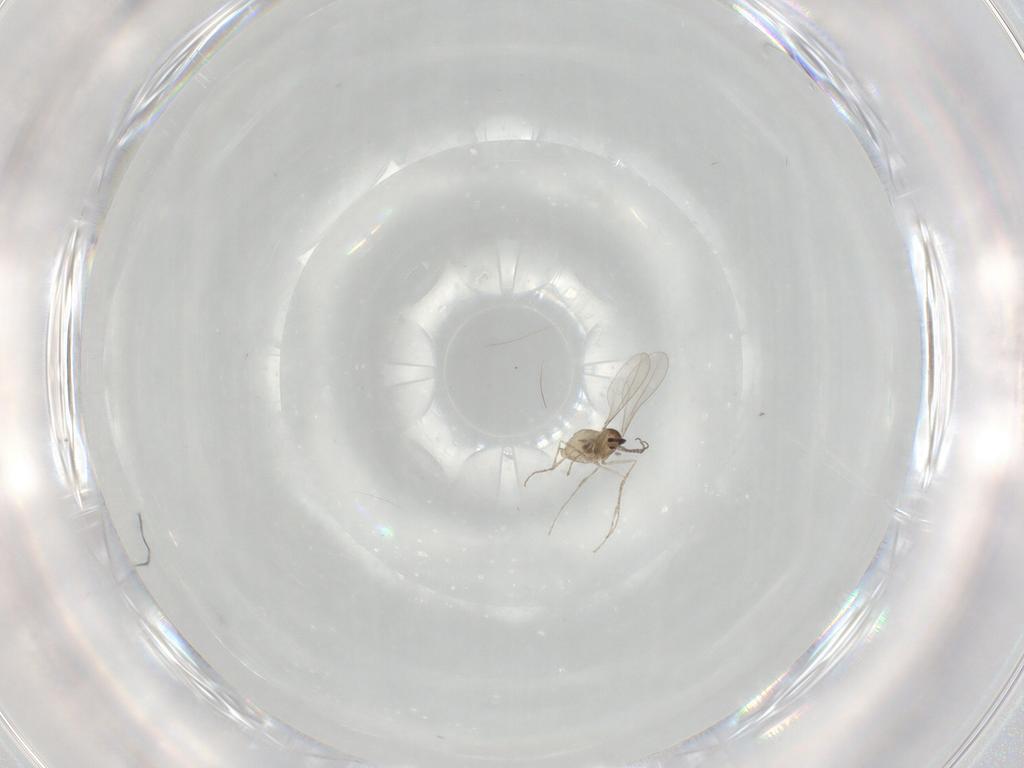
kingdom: Animalia
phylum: Arthropoda
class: Insecta
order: Diptera
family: Cecidomyiidae
